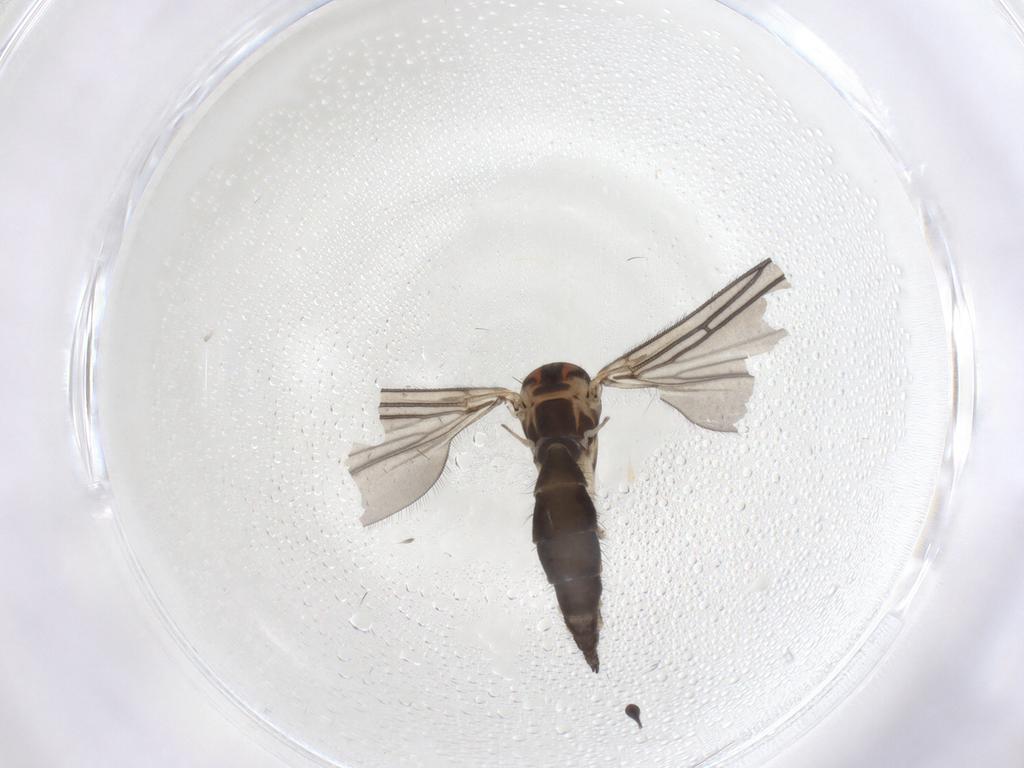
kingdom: Animalia
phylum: Arthropoda
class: Insecta
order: Diptera
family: Sciaridae
